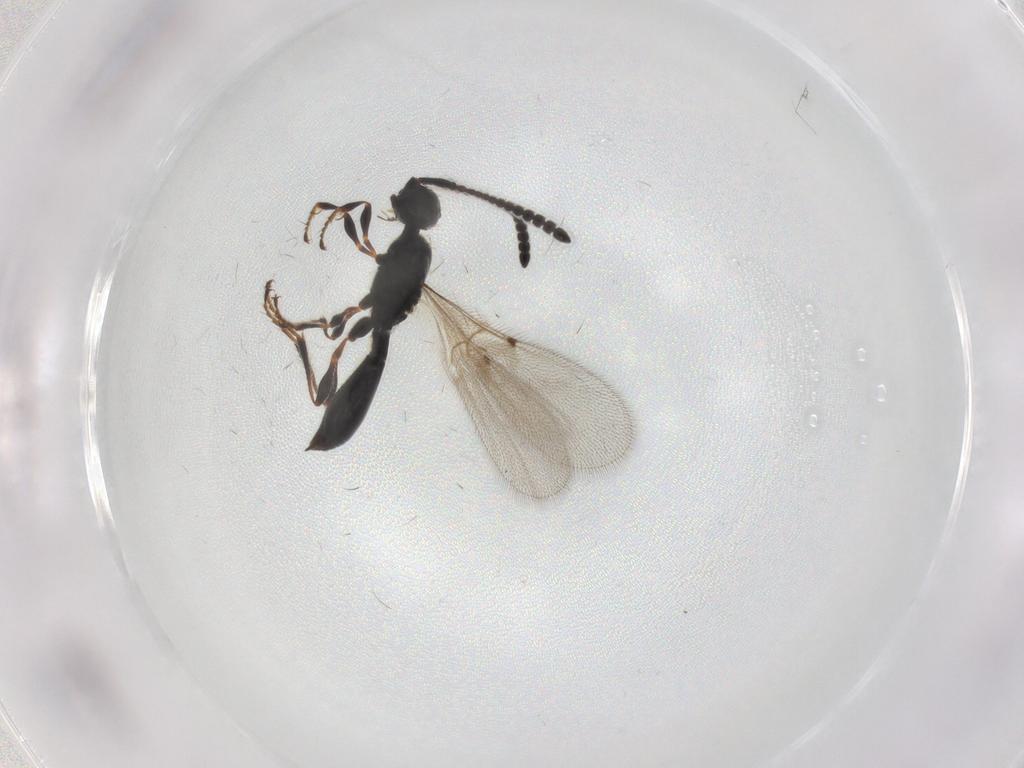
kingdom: Animalia
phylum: Arthropoda
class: Insecta
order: Hymenoptera
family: Diapriidae
